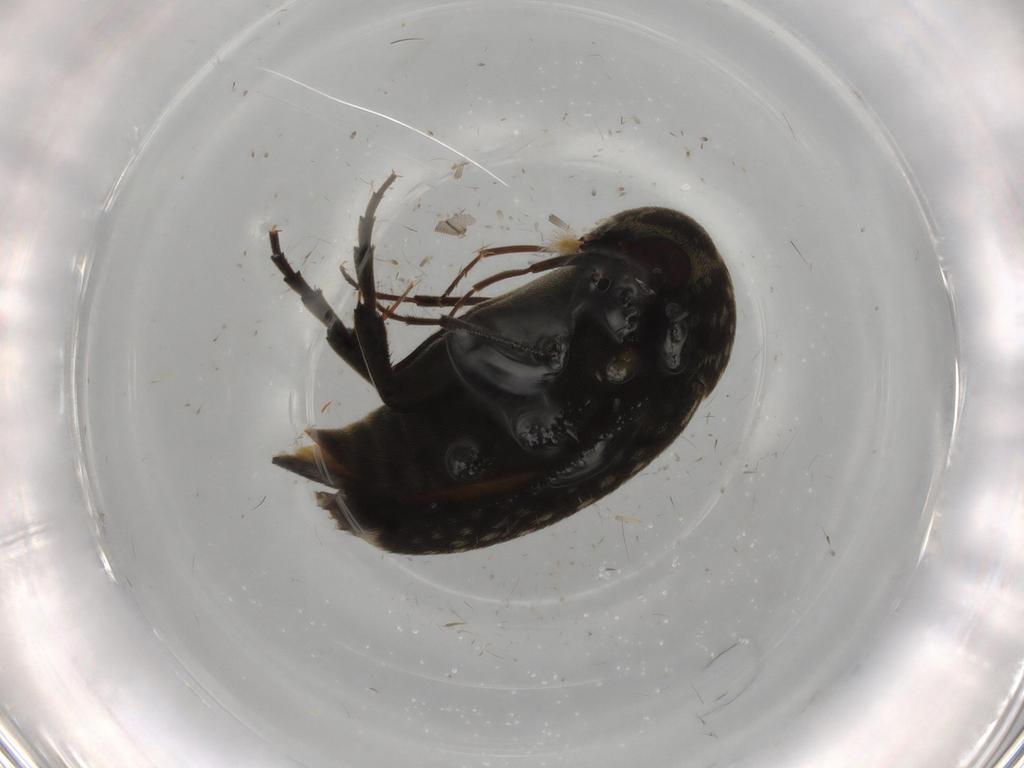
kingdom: Animalia
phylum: Arthropoda
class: Insecta
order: Coleoptera
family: Mordellidae
